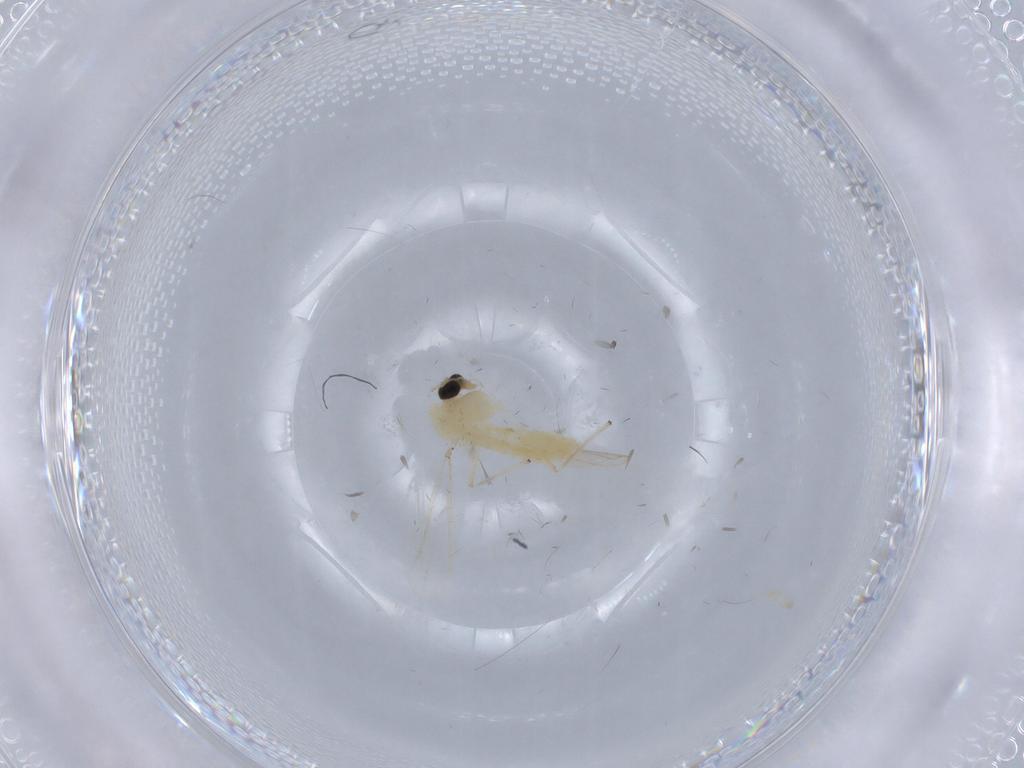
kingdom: Animalia
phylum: Arthropoda
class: Insecta
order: Diptera
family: Chironomidae
